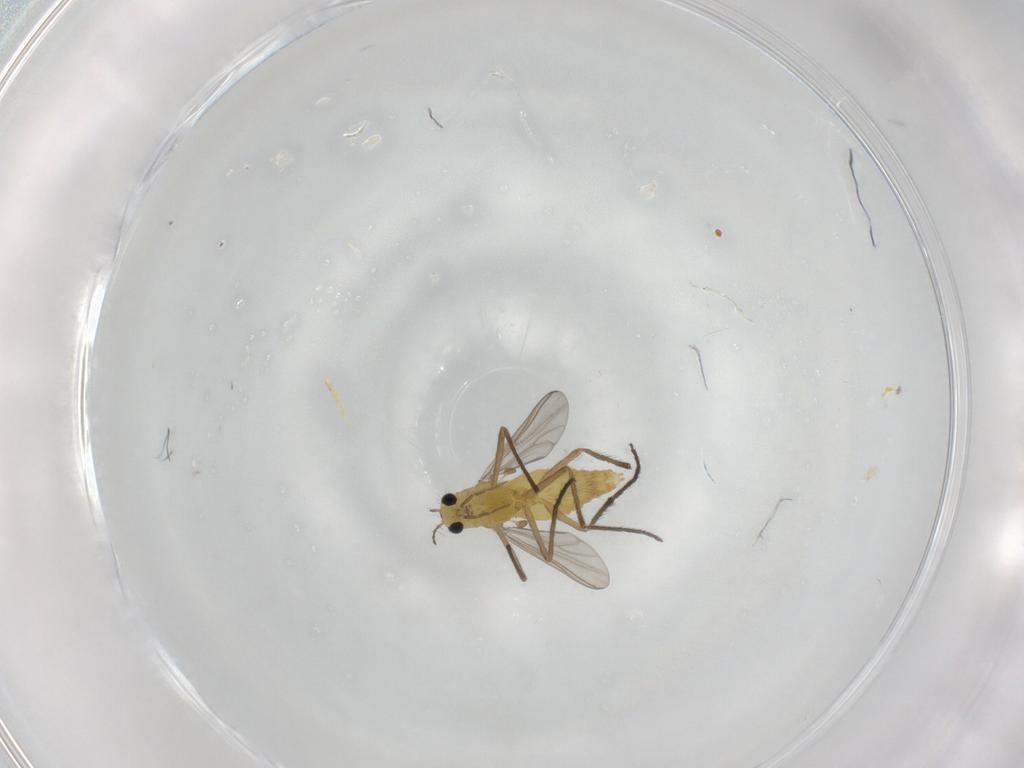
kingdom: Animalia
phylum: Arthropoda
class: Insecta
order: Diptera
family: Chironomidae
